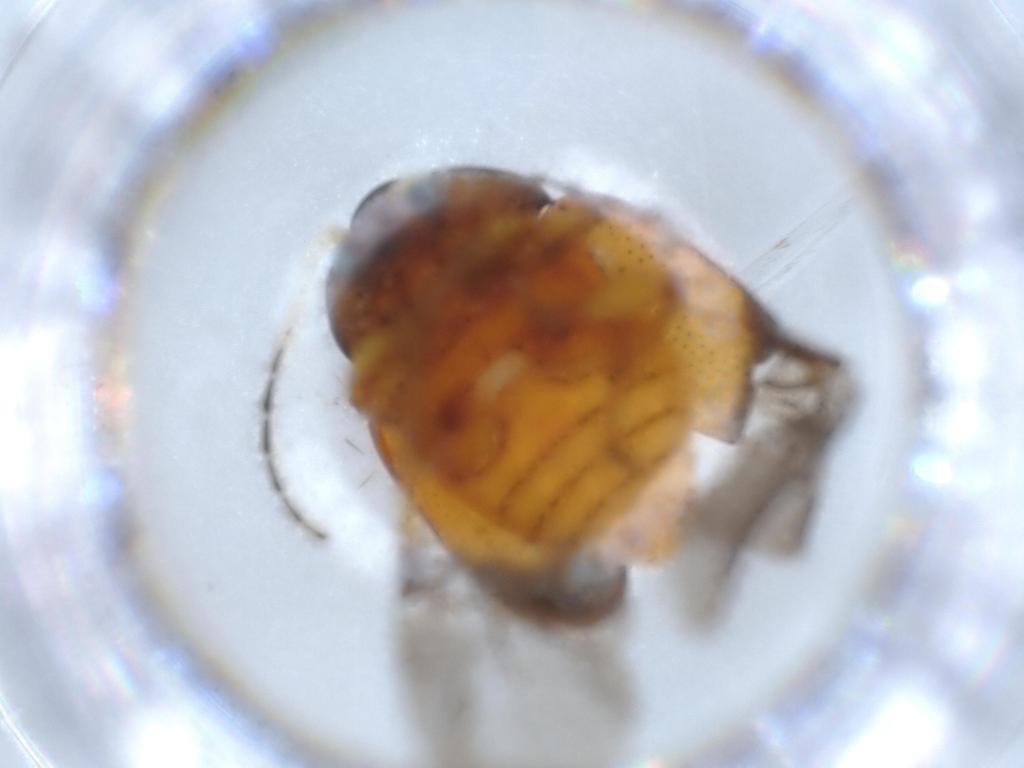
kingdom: Animalia
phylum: Arthropoda
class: Insecta
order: Coleoptera
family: Chrysomelidae
